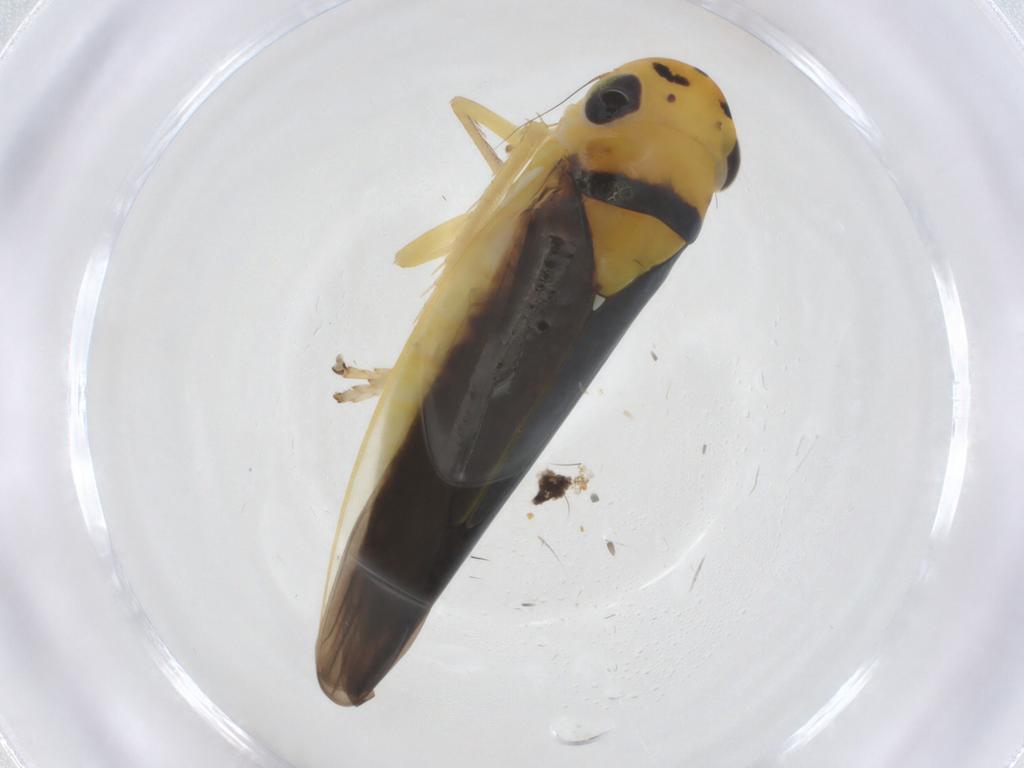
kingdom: Animalia
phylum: Arthropoda
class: Insecta
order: Hemiptera
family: Cicadellidae
